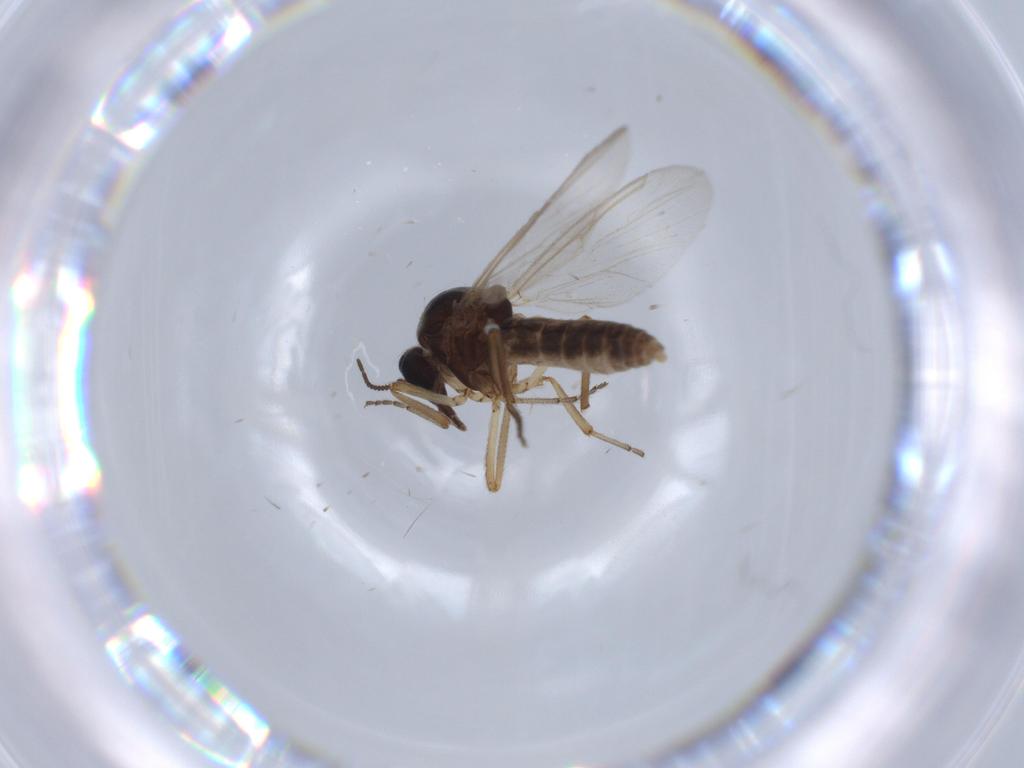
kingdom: Animalia
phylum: Arthropoda
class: Insecta
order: Diptera
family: Ceratopogonidae
